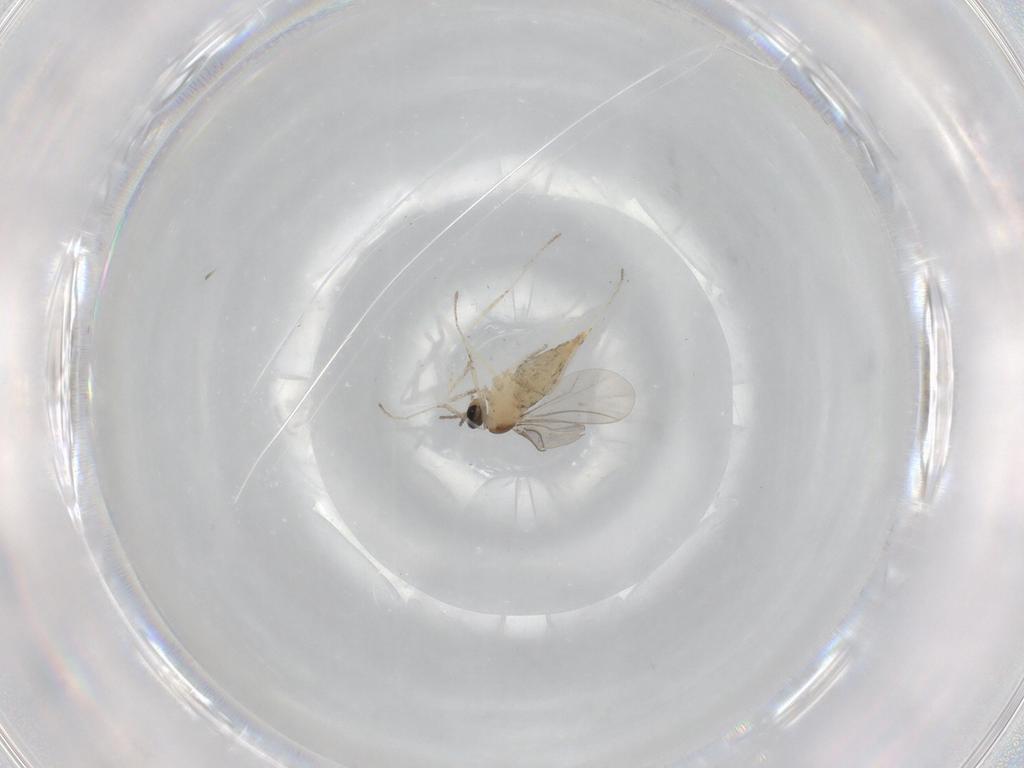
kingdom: Animalia
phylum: Arthropoda
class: Insecta
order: Diptera
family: Cecidomyiidae
